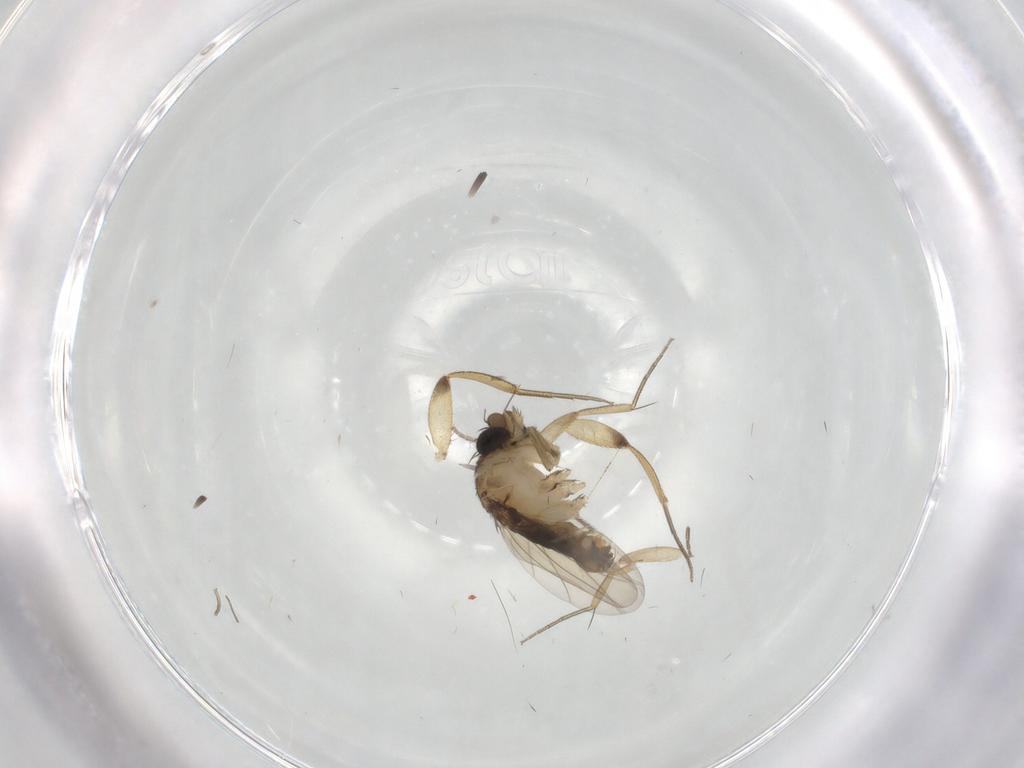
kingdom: Animalia
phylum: Arthropoda
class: Insecta
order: Diptera
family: Phoridae
